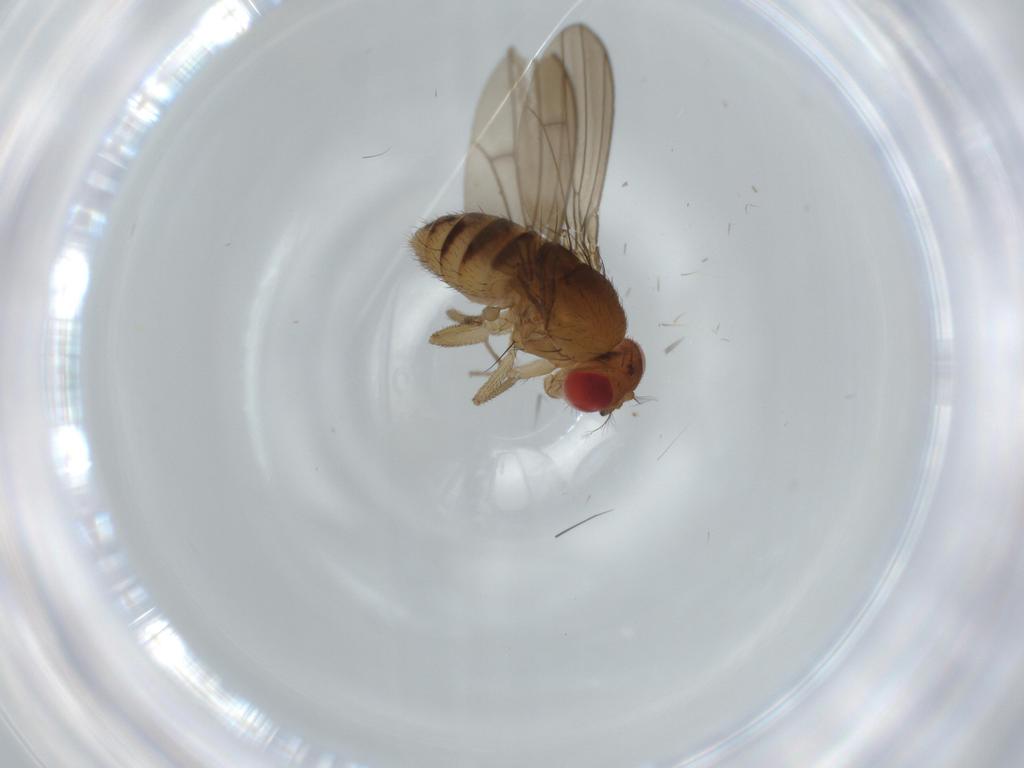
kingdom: Animalia
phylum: Arthropoda
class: Insecta
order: Diptera
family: Drosophilidae
